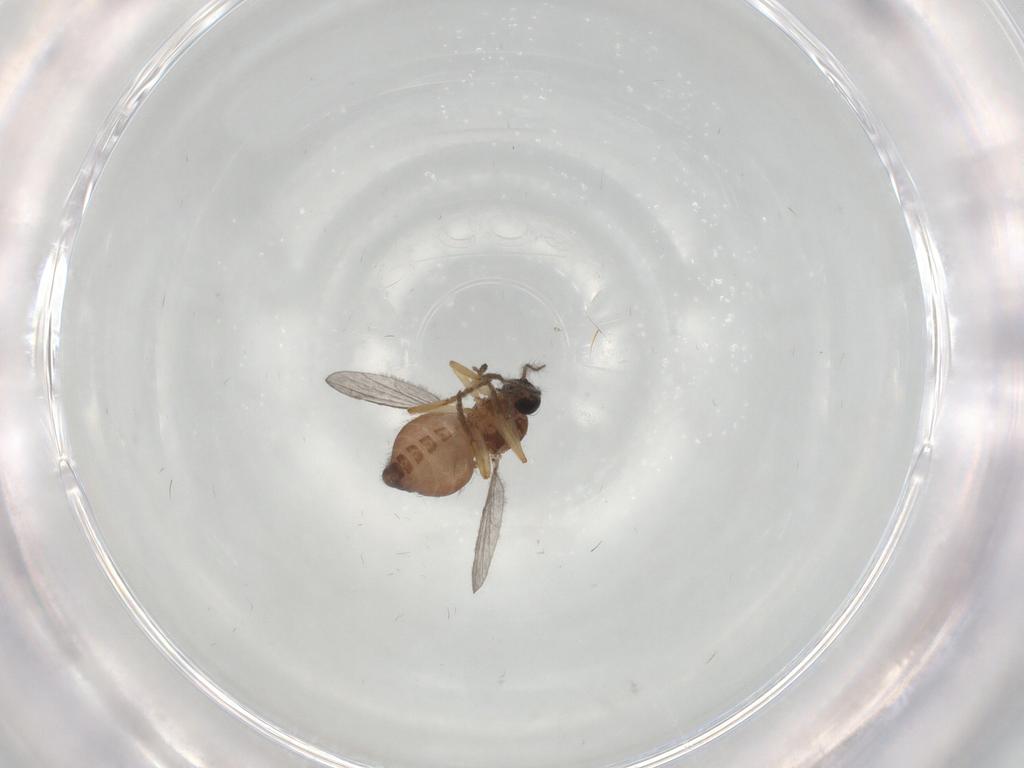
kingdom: Animalia
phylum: Arthropoda
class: Insecta
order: Diptera
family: Ceratopogonidae
